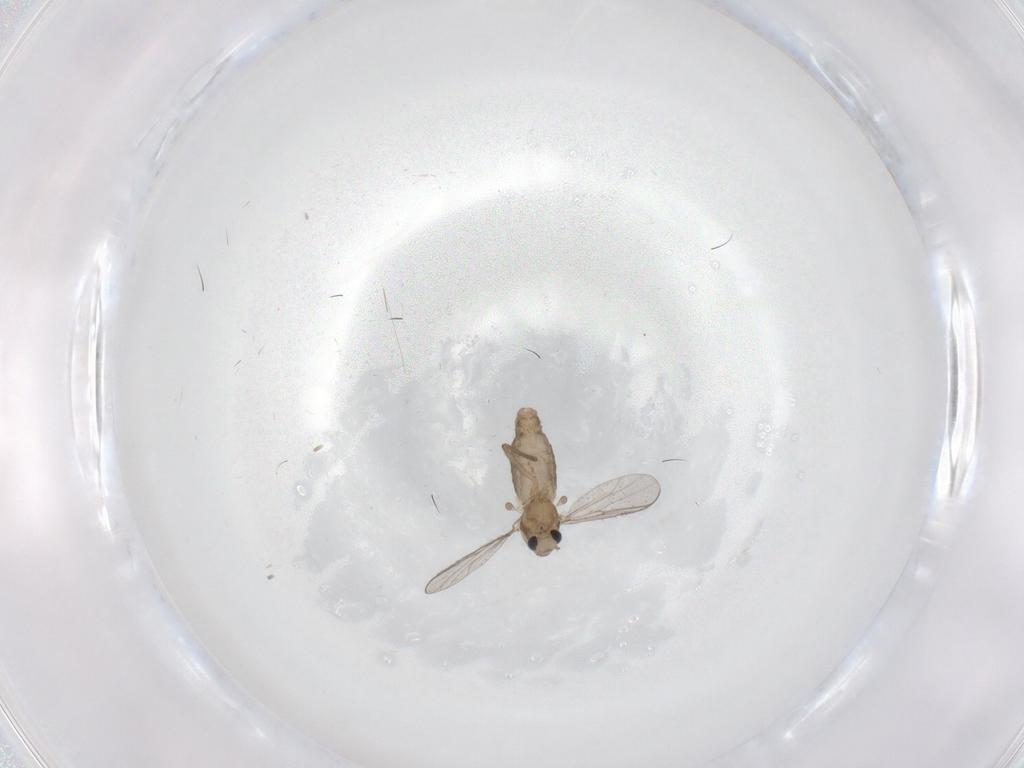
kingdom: Animalia
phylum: Arthropoda
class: Insecta
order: Diptera
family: Chironomidae
